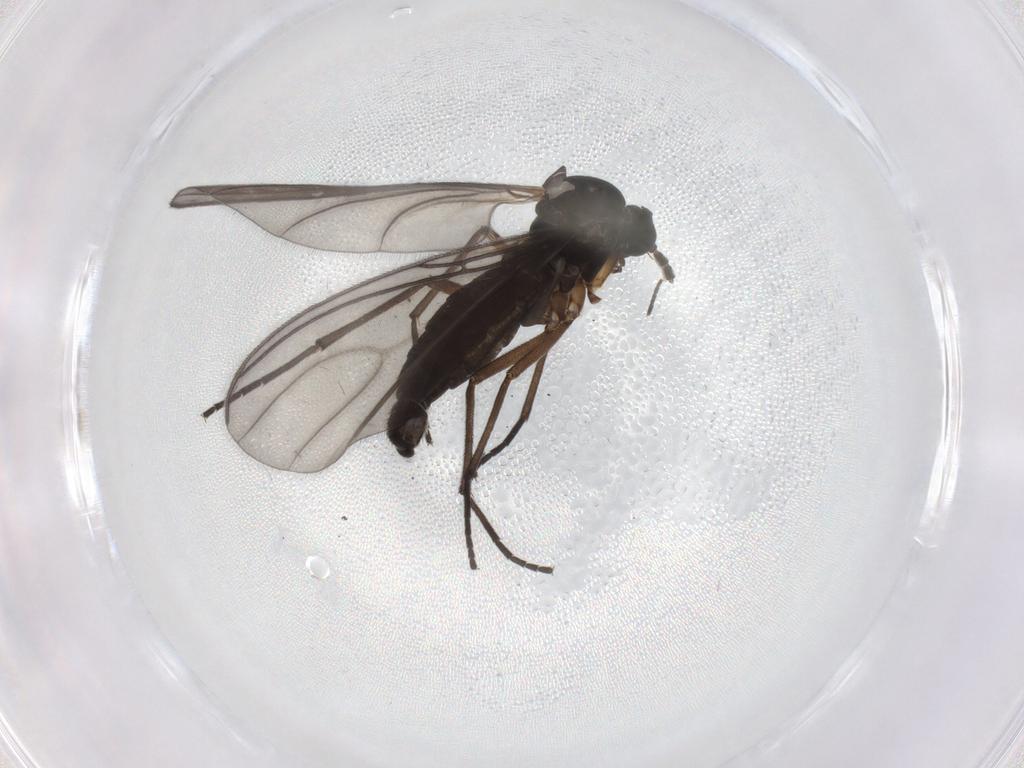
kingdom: Animalia
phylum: Arthropoda
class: Insecta
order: Diptera
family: Sciaridae
